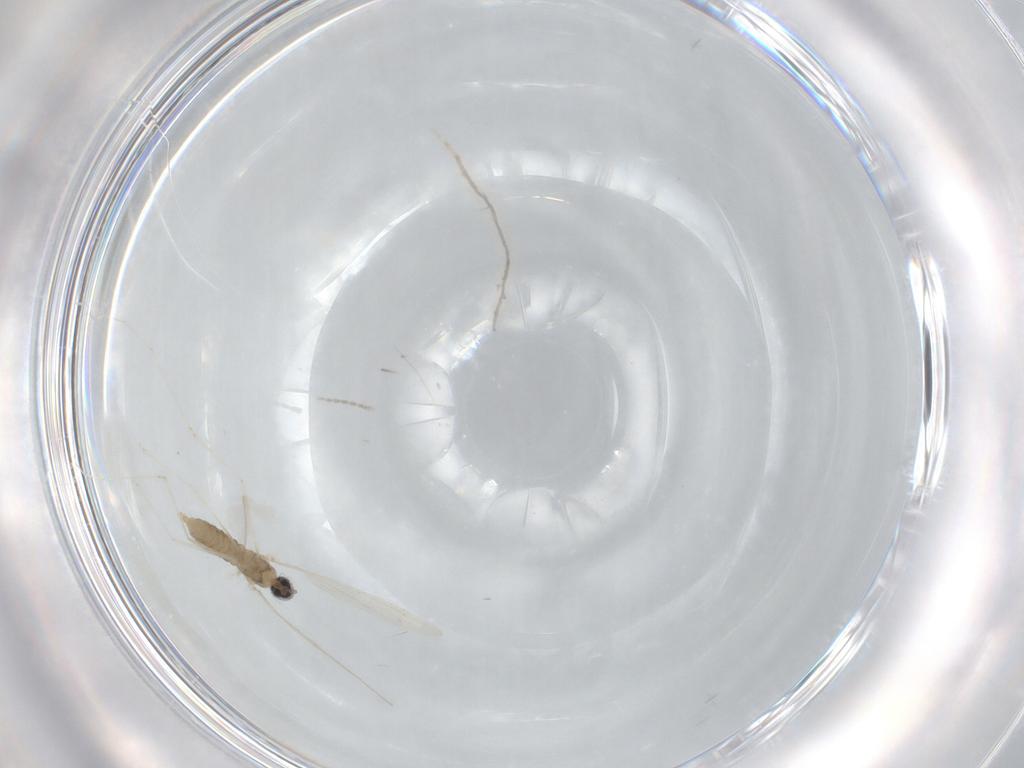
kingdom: Animalia
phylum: Arthropoda
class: Insecta
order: Diptera
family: Cecidomyiidae
